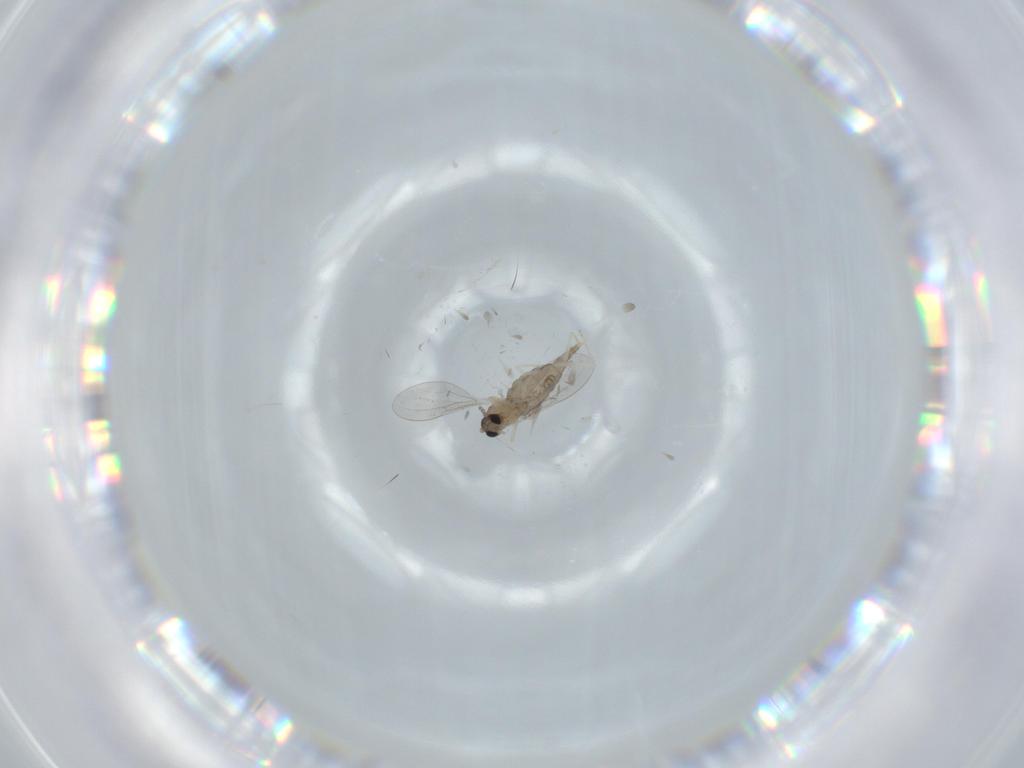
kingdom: Animalia
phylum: Arthropoda
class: Insecta
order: Diptera
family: Cecidomyiidae
